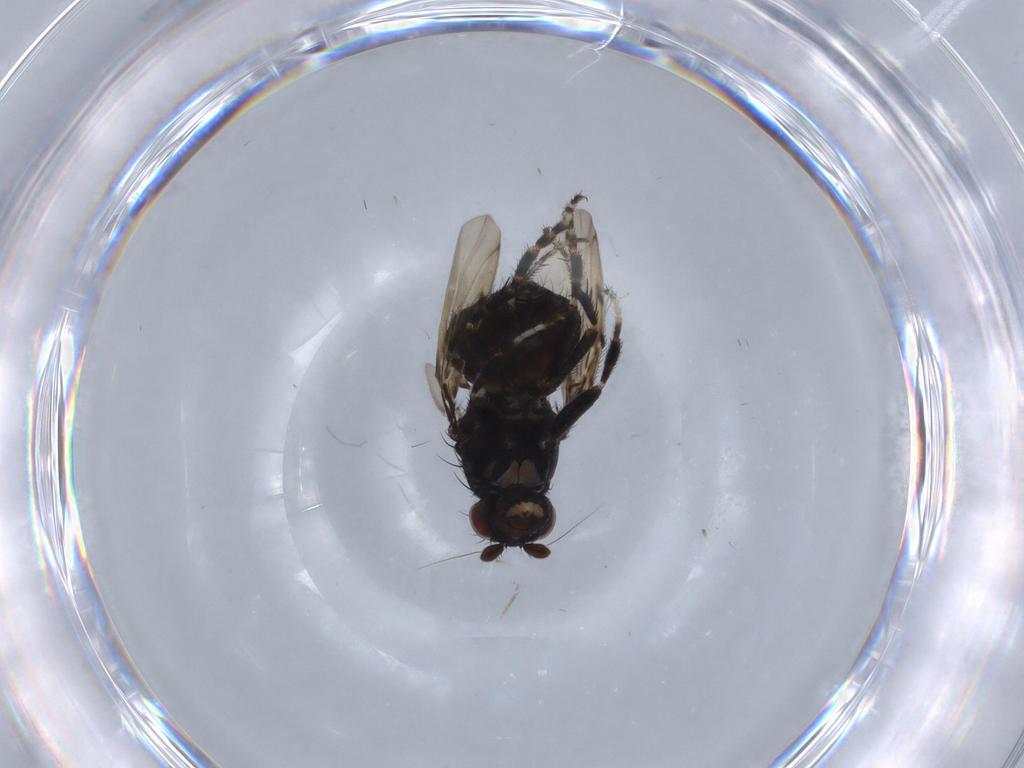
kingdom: Animalia
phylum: Arthropoda
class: Insecta
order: Diptera
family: Sphaeroceridae
